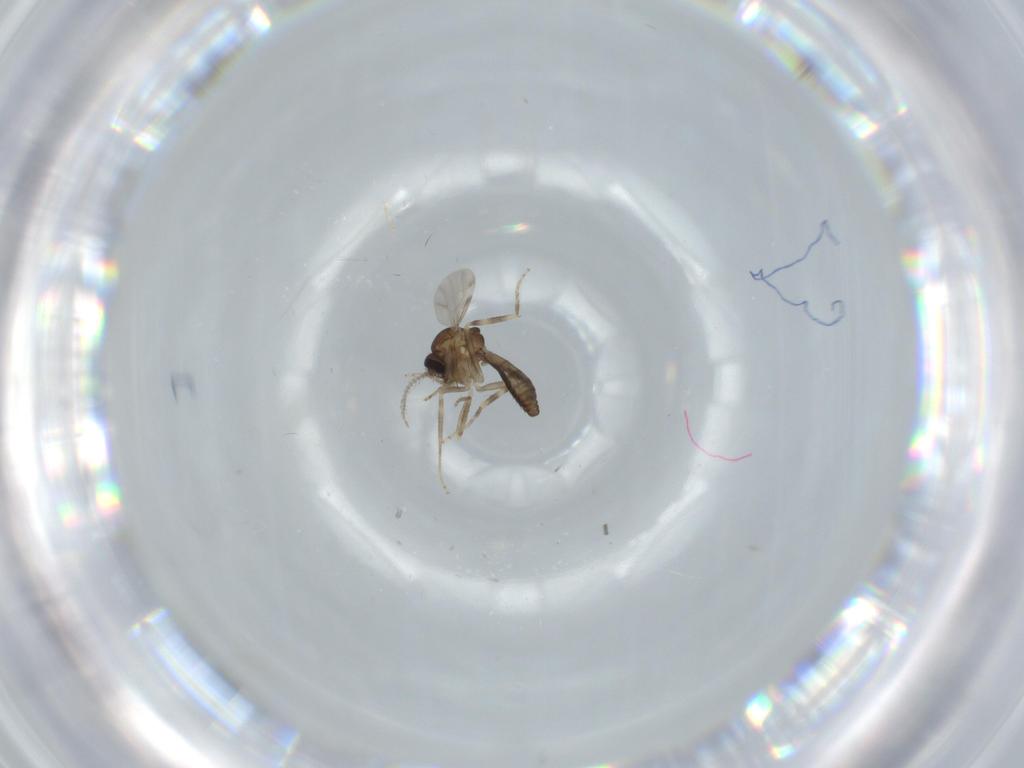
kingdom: Animalia
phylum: Arthropoda
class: Insecta
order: Diptera
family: Ceratopogonidae
